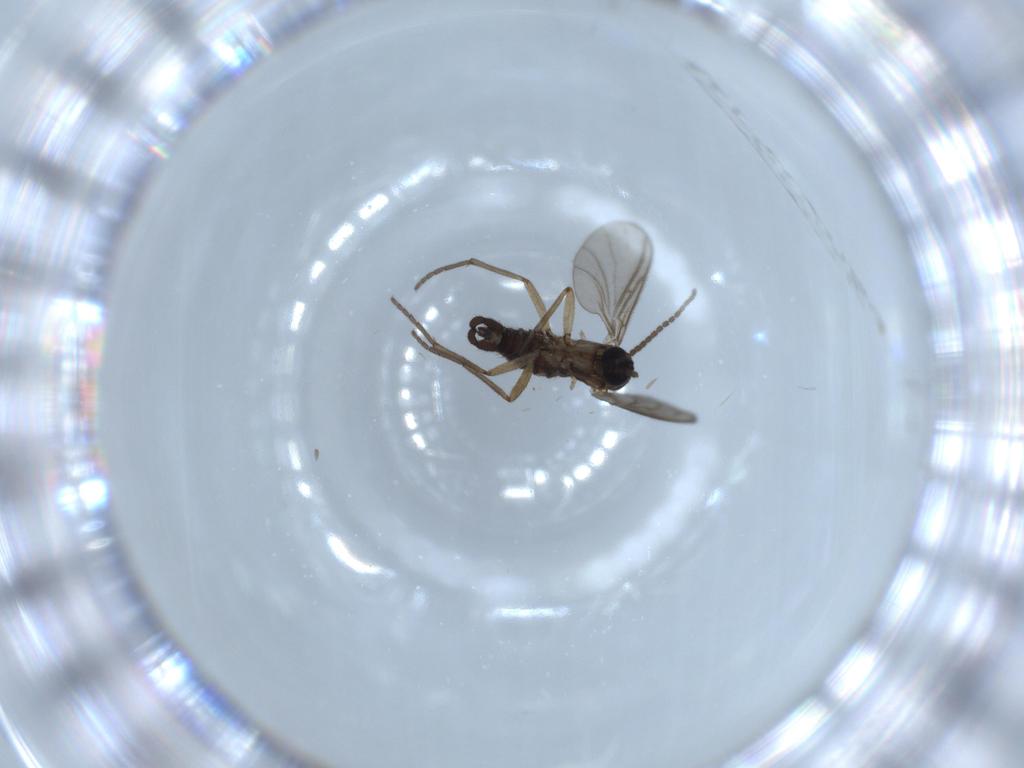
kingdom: Animalia
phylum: Arthropoda
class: Insecta
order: Diptera
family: Sciaridae
